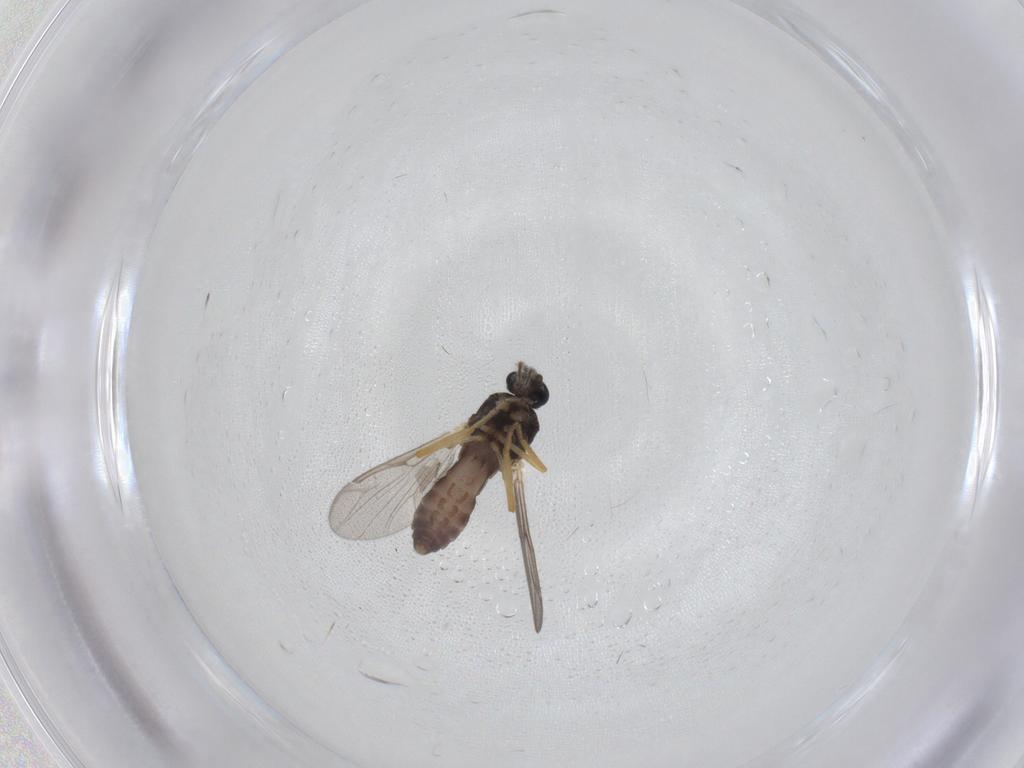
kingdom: Animalia
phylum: Arthropoda
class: Insecta
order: Diptera
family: Ceratopogonidae
